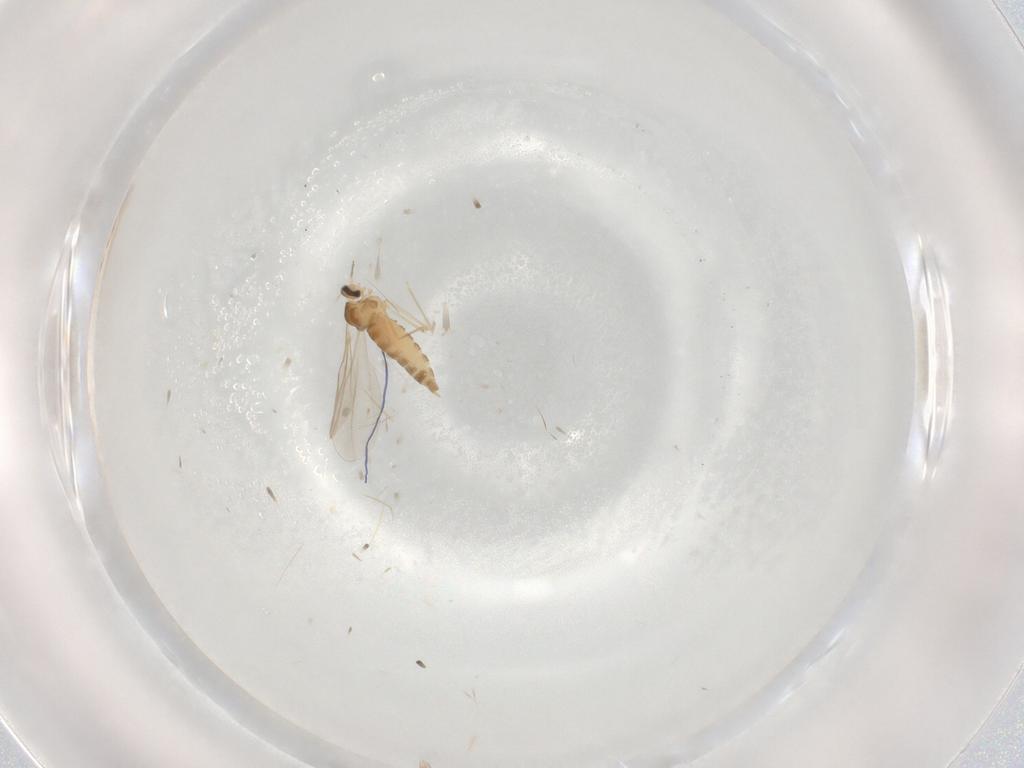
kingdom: Animalia
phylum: Arthropoda
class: Insecta
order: Diptera
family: Cecidomyiidae
